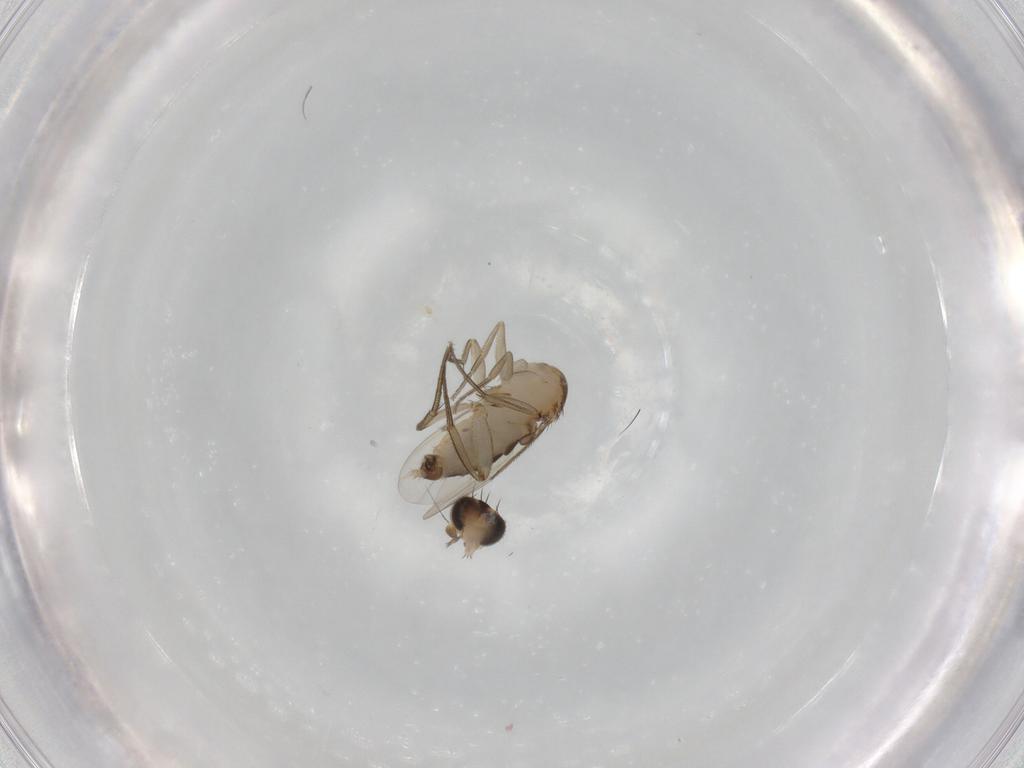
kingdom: Animalia
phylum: Arthropoda
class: Insecta
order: Diptera
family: Phoridae
